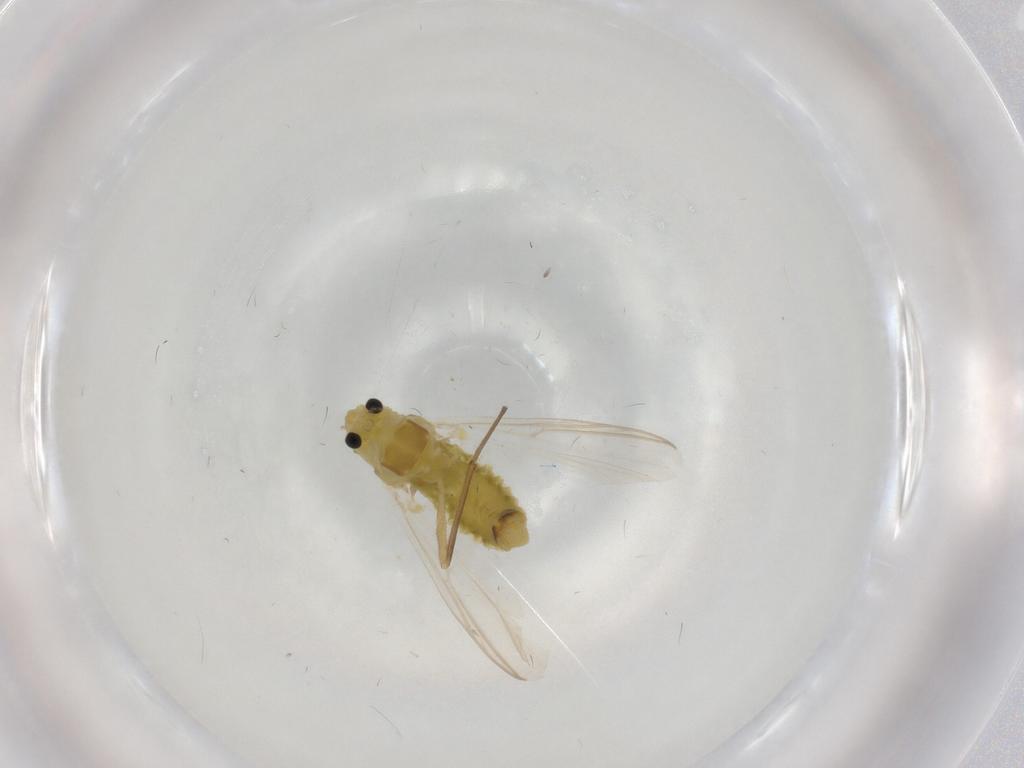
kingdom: Animalia
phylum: Arthropoda
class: Insecta
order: Diptera
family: Chironomidae
